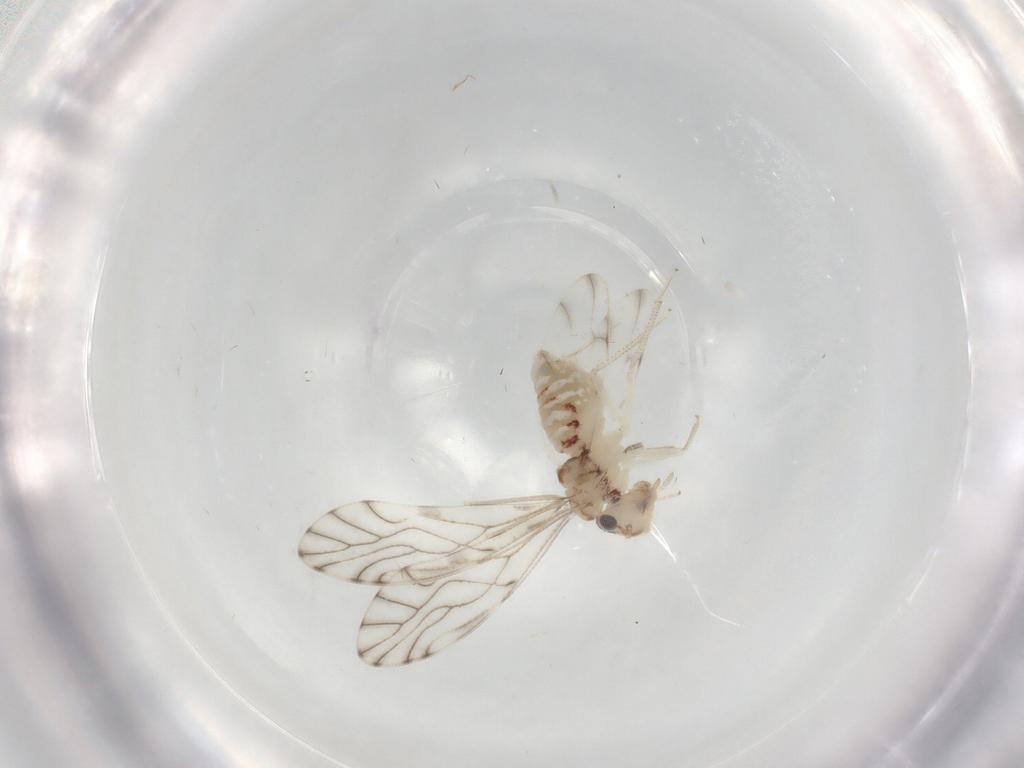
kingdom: Animalia
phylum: Arthropoda
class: Insecta
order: Psocodea
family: Philotarsidae
